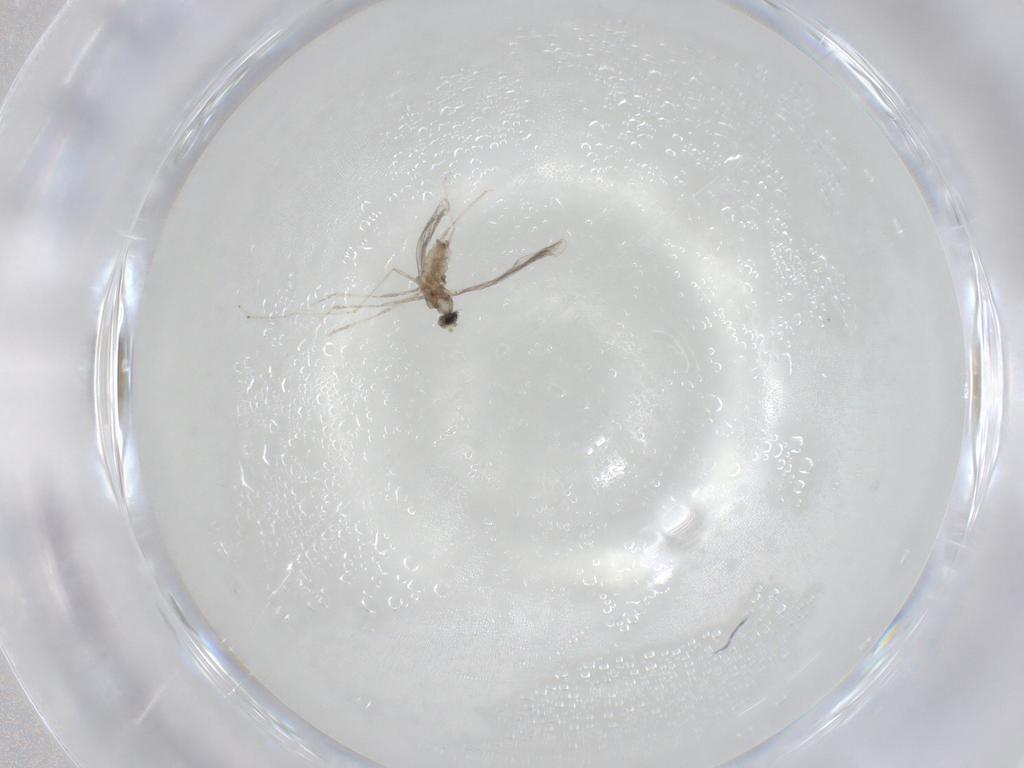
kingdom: Animalia
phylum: Arthropoda
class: Insecta
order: Diptera
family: Cecidomyiidae
